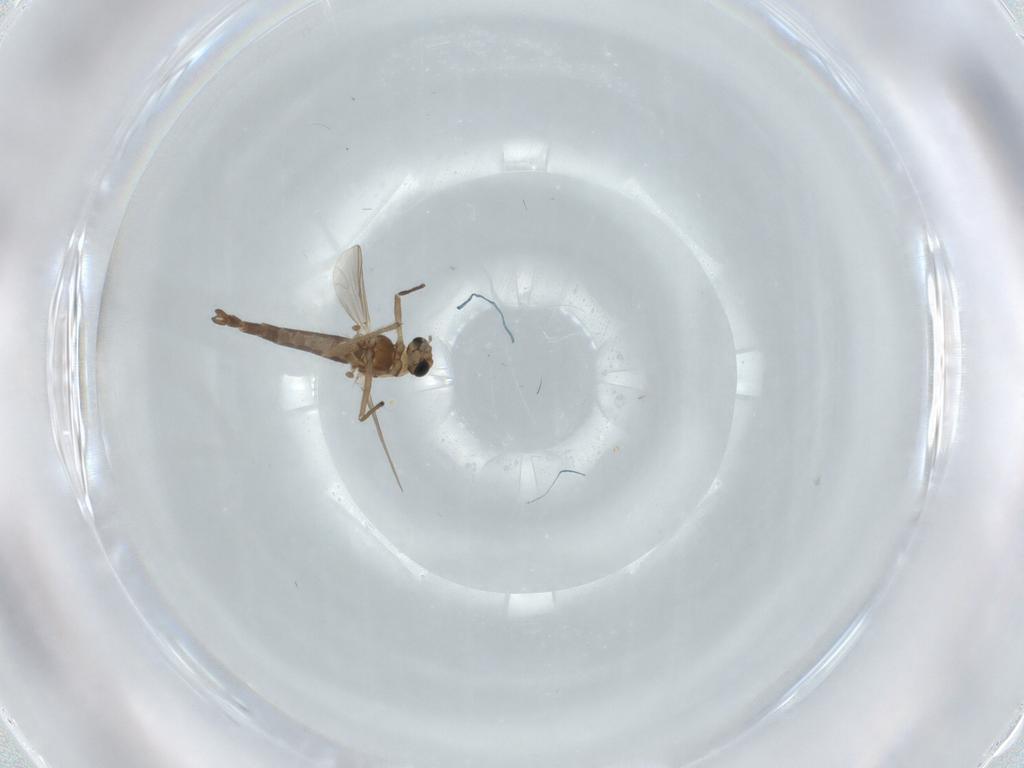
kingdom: Animalia
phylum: Arthropoda
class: Insecta
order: Diptera
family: Chironomidae
